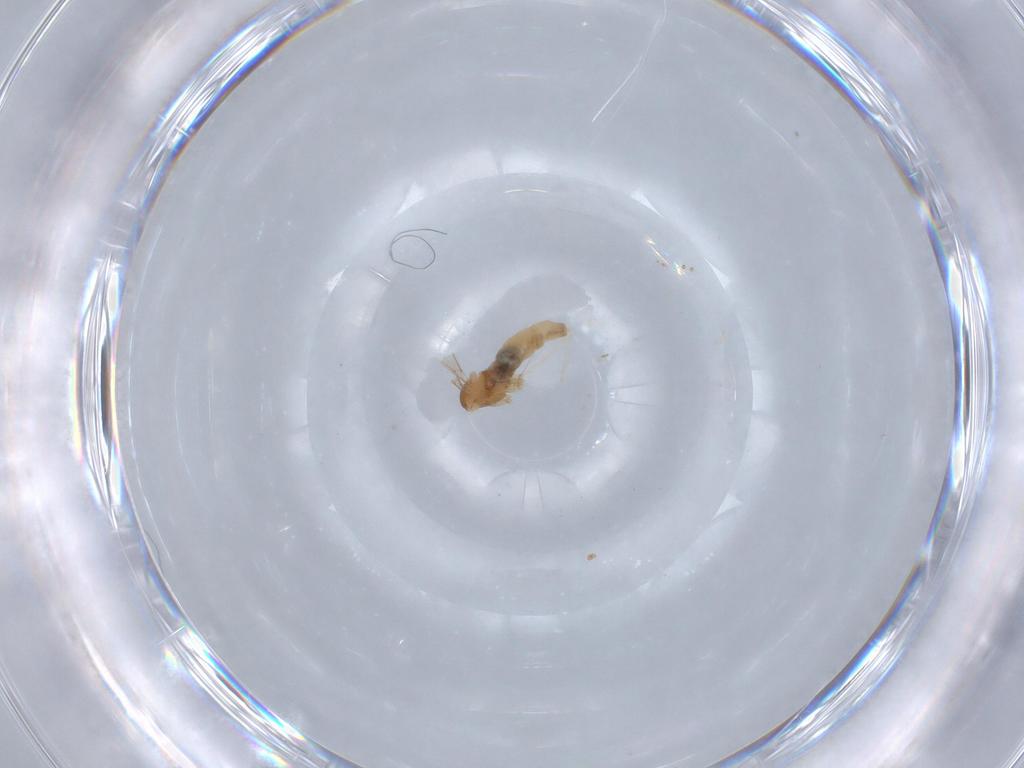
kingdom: Animalia
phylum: Arthropoda
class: Insecta
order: Diptera
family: Cecidomyiidae
